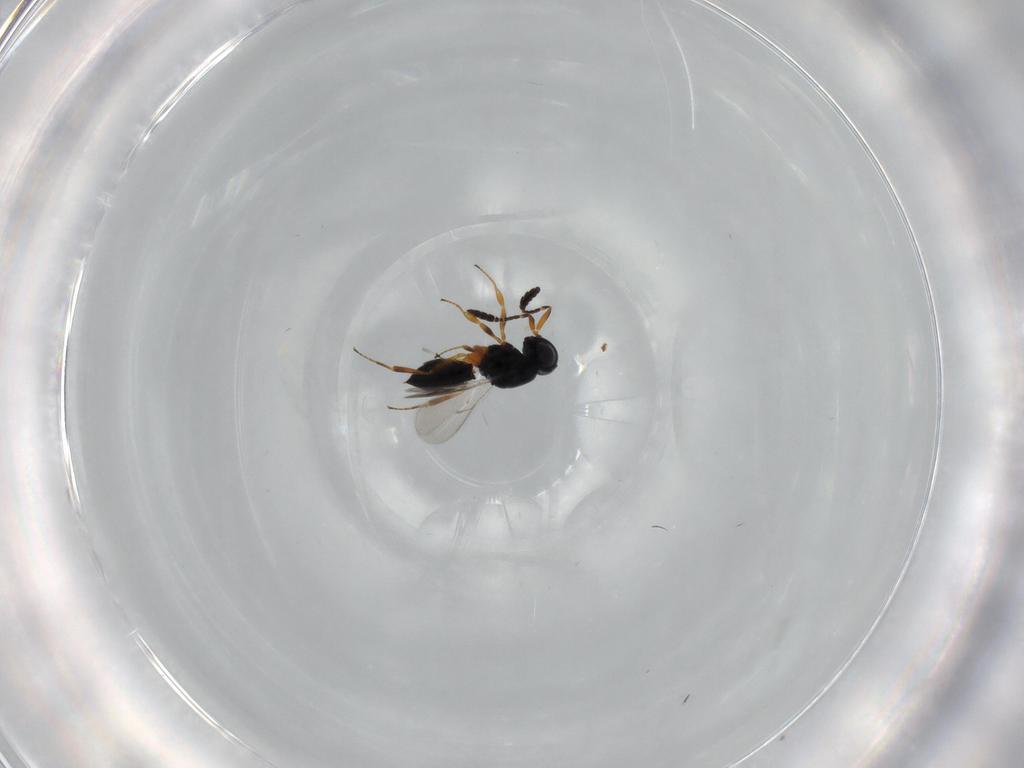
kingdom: Animalia
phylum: Arthropoda
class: Insecta
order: Hymenoptera
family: Scelionidae
